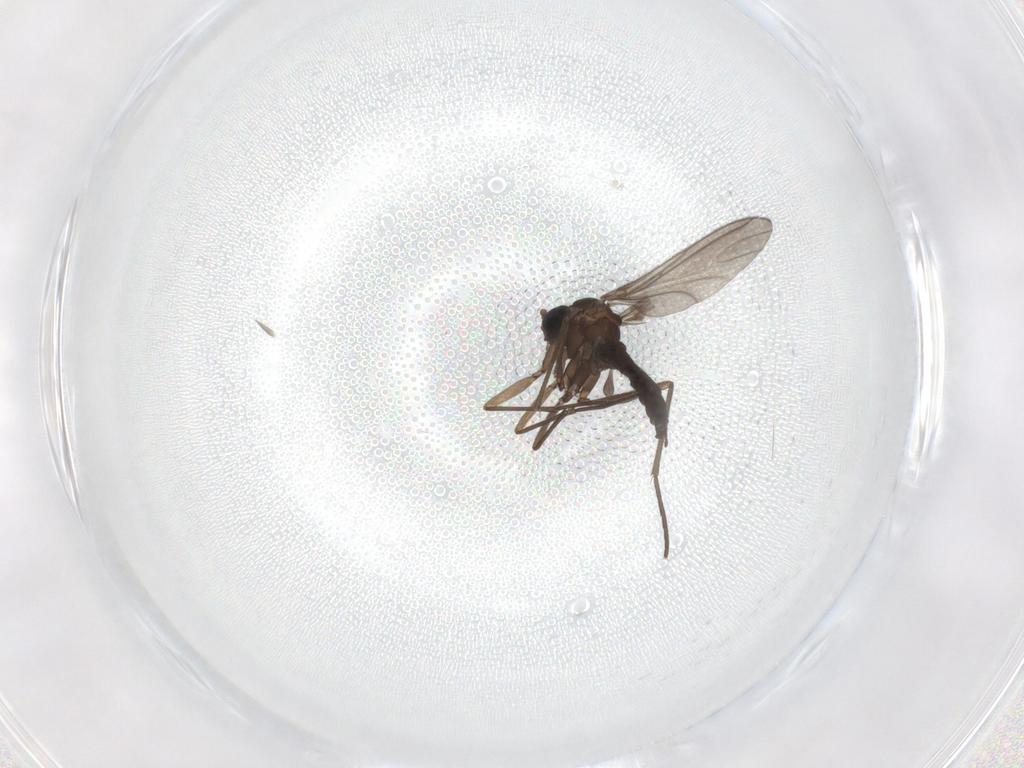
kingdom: Animalia
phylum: Arthropoda
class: Insecta
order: Diptera
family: Sciaridae
